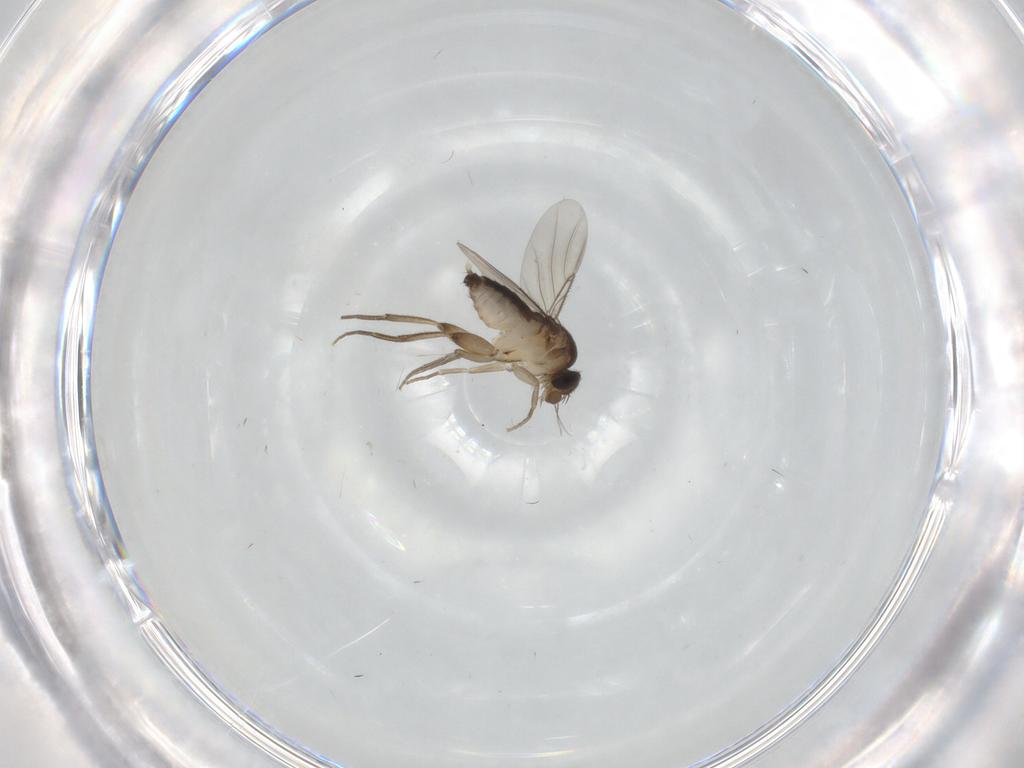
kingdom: Animalia
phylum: Arthropoda
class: Insecta
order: Diptera
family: Phoridae
